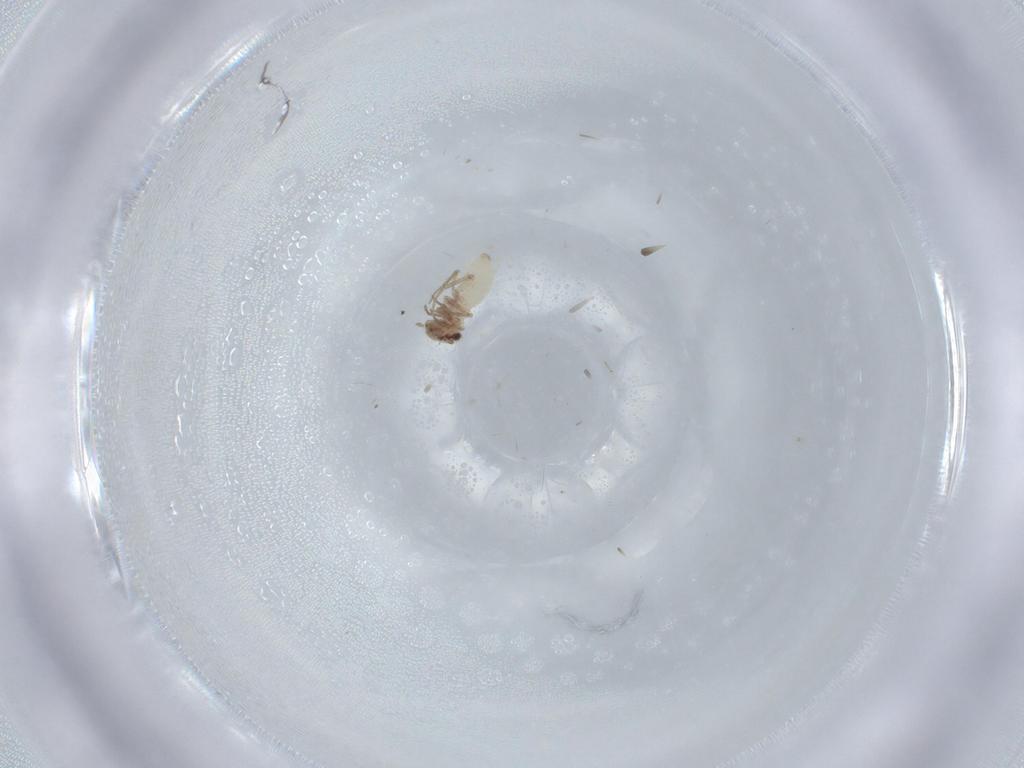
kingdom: Animalia
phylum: Arthropoda
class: Insecta
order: Psocodea
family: Lepidopsocidae
